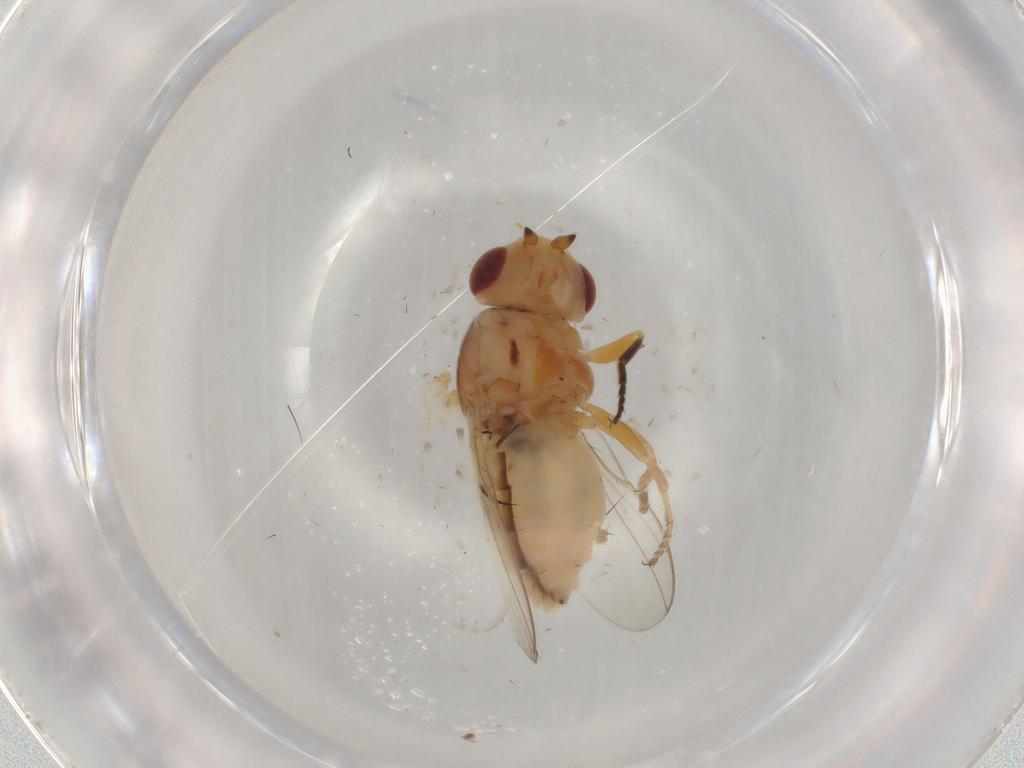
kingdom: Animalia
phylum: Arthropoda
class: Insecta
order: Diptera
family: Chloropidae
